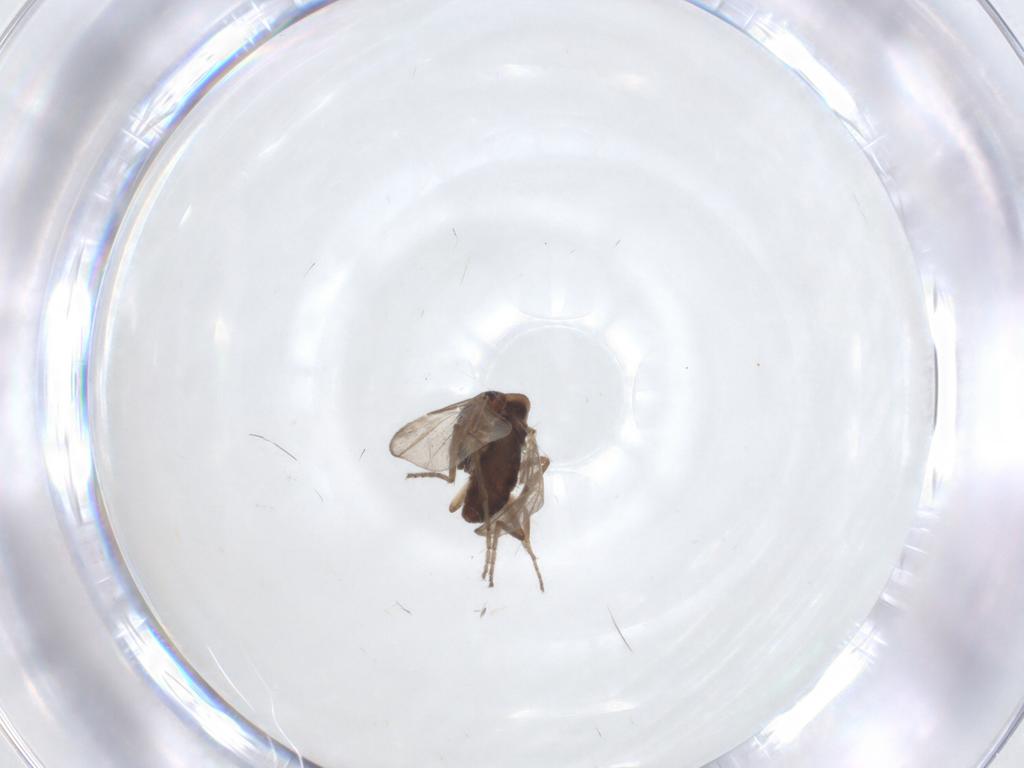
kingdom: Animalia
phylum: Arthropoda
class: Insecta
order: Diptera
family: Ceratopogonidae
